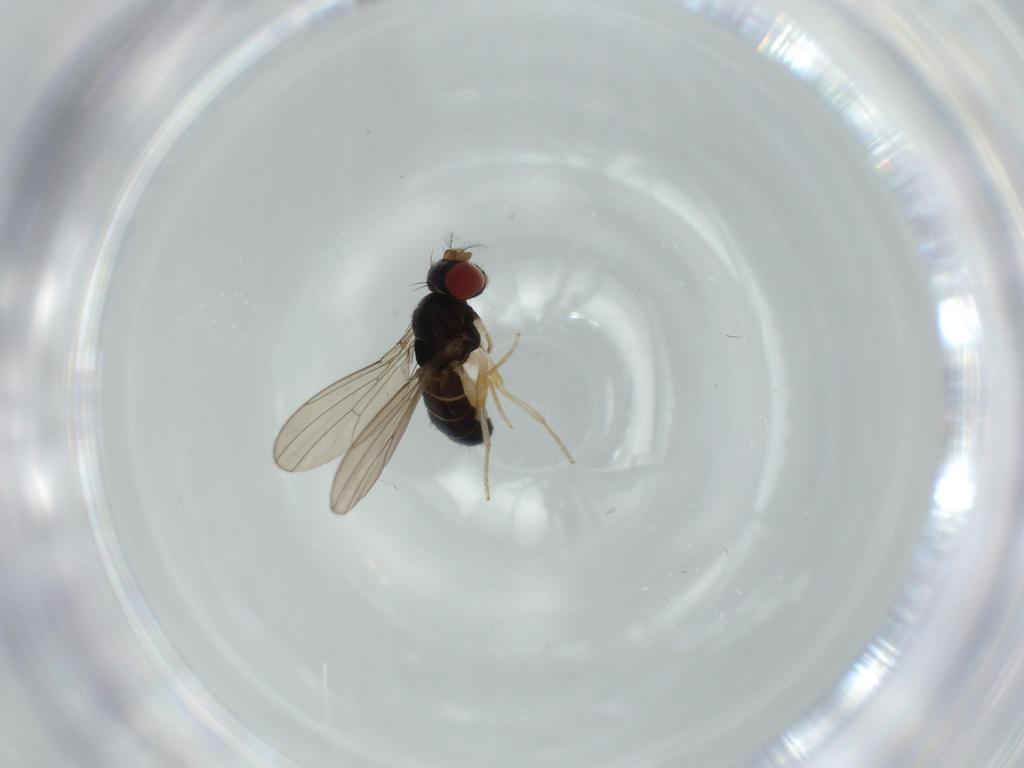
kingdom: Animalia
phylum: Arthropoda
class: Insecta
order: Diptera
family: Drosophilidae
